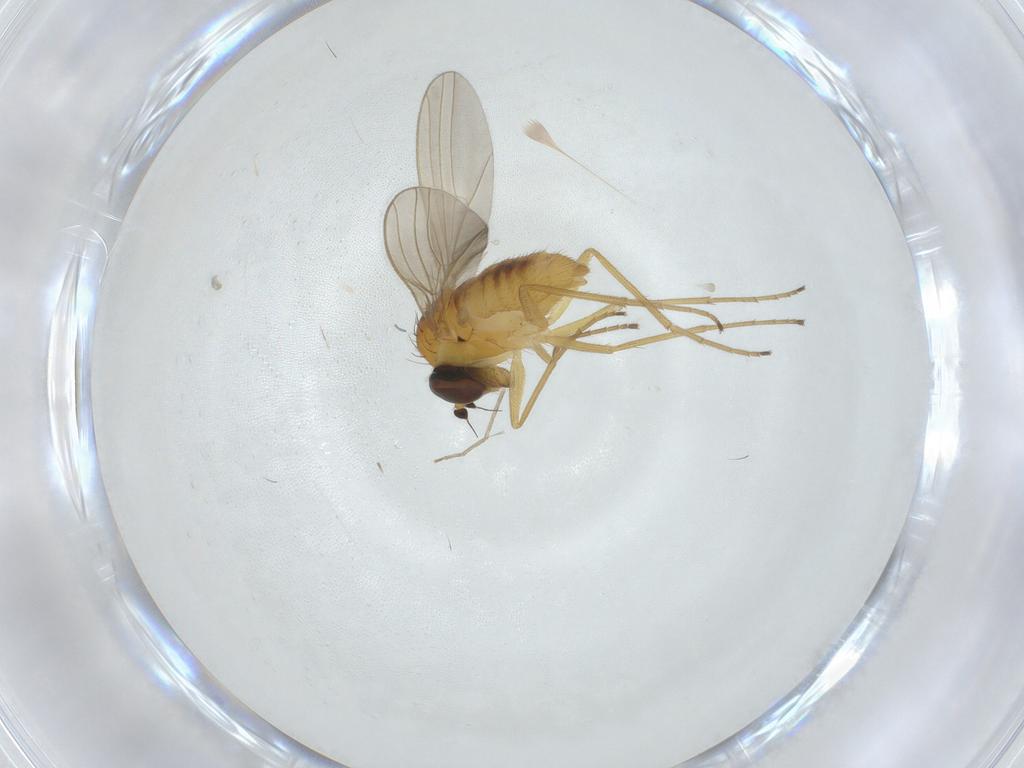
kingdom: Animalia
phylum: Arthropoda
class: Insecta
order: Diptera
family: Dolichopodidae
